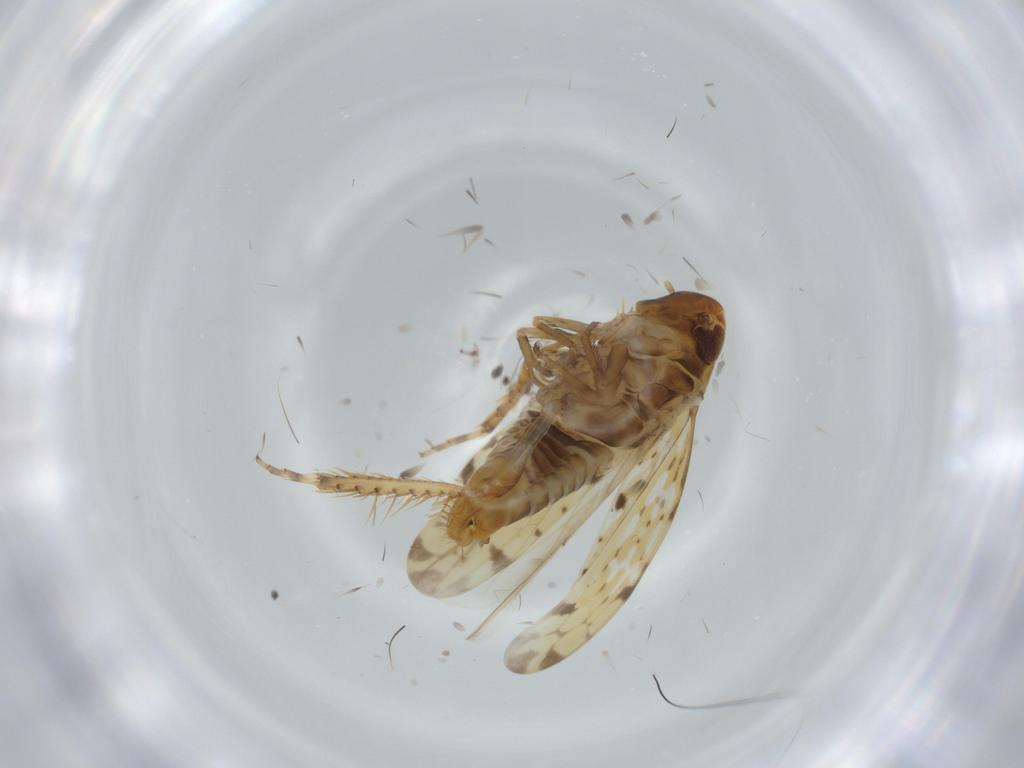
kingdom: Animalia
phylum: Arthropoda
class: Insecta
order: Hemiptera
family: Cicadellidae
